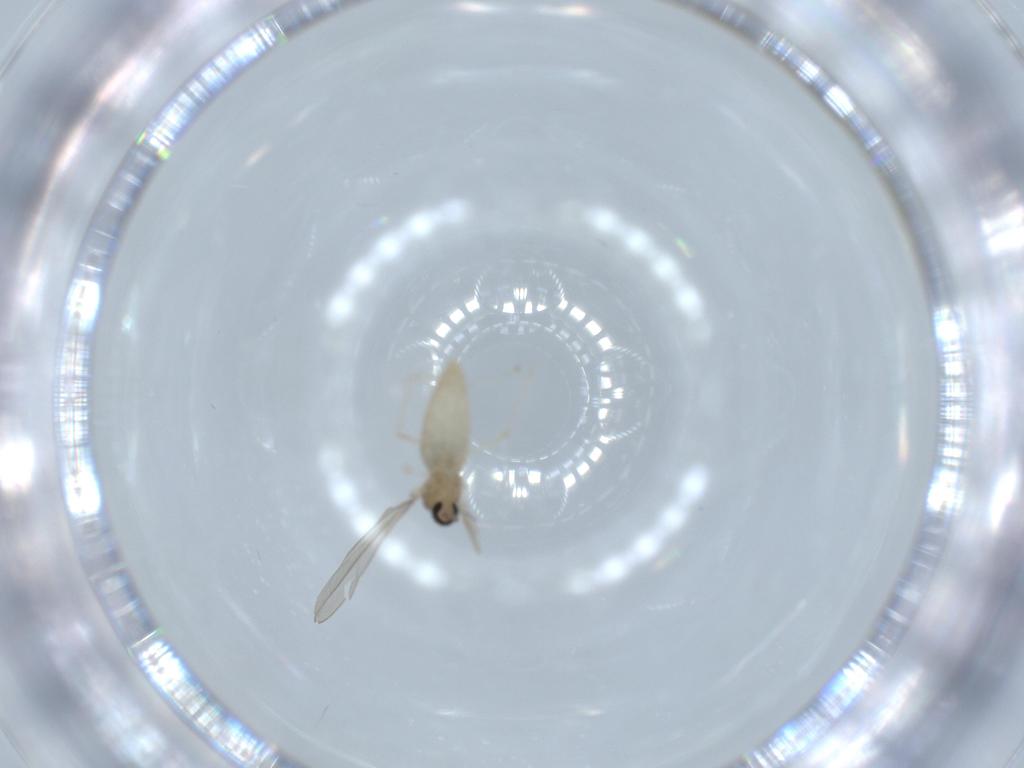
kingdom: Animalia
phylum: Arthropoda
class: Insecta
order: Diptera
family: Cecidomyiidae
